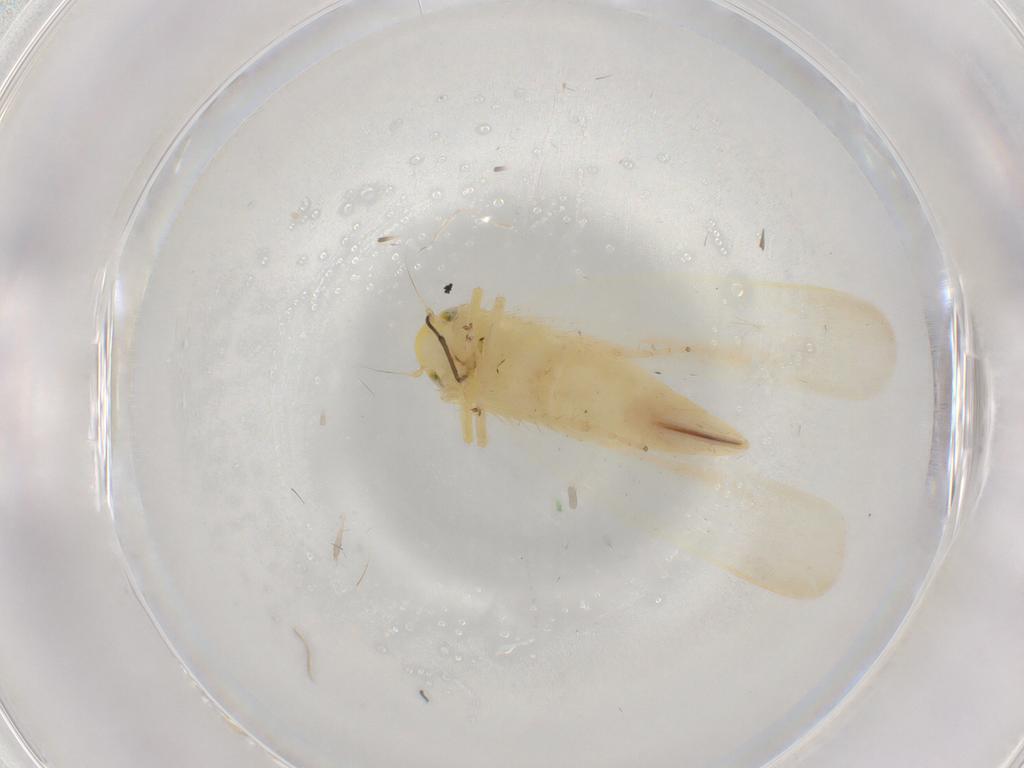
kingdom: Animalia
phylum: Arthropoda
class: Insecta
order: Hemiptera
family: Cicadellidae
